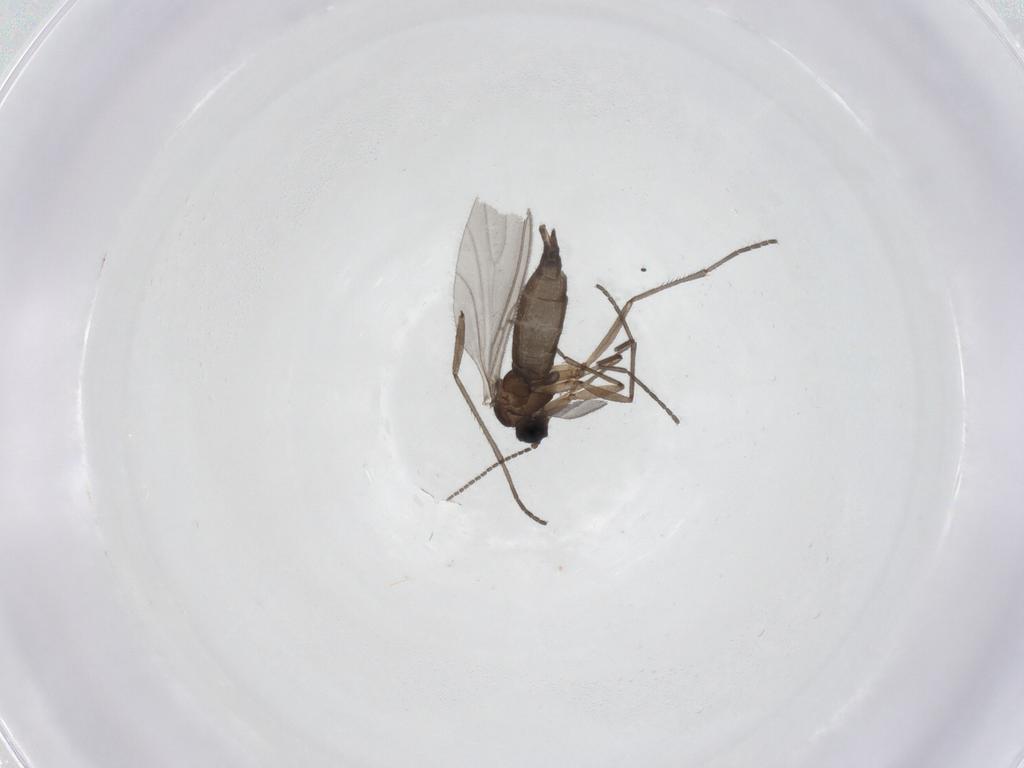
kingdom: Animalia
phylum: Arthropoda
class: Insecta
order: Diptera
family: Sciaridae
